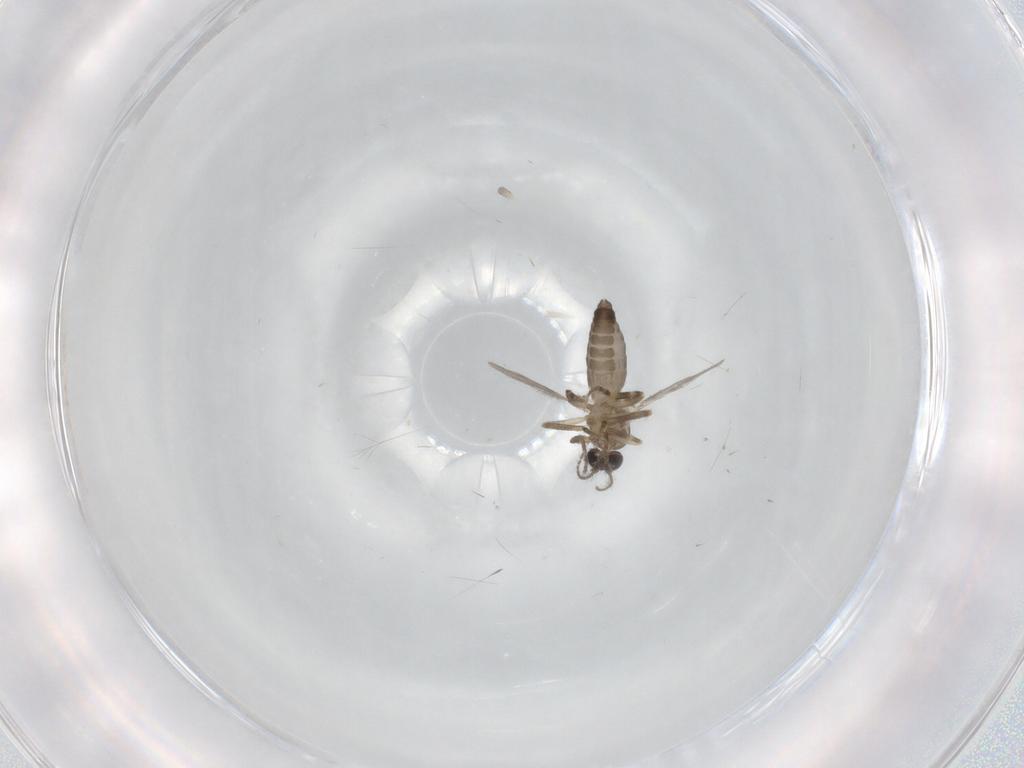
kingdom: Animalia
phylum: Arthropoda
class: Insecta
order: Diptera
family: Ceratopogonidae
